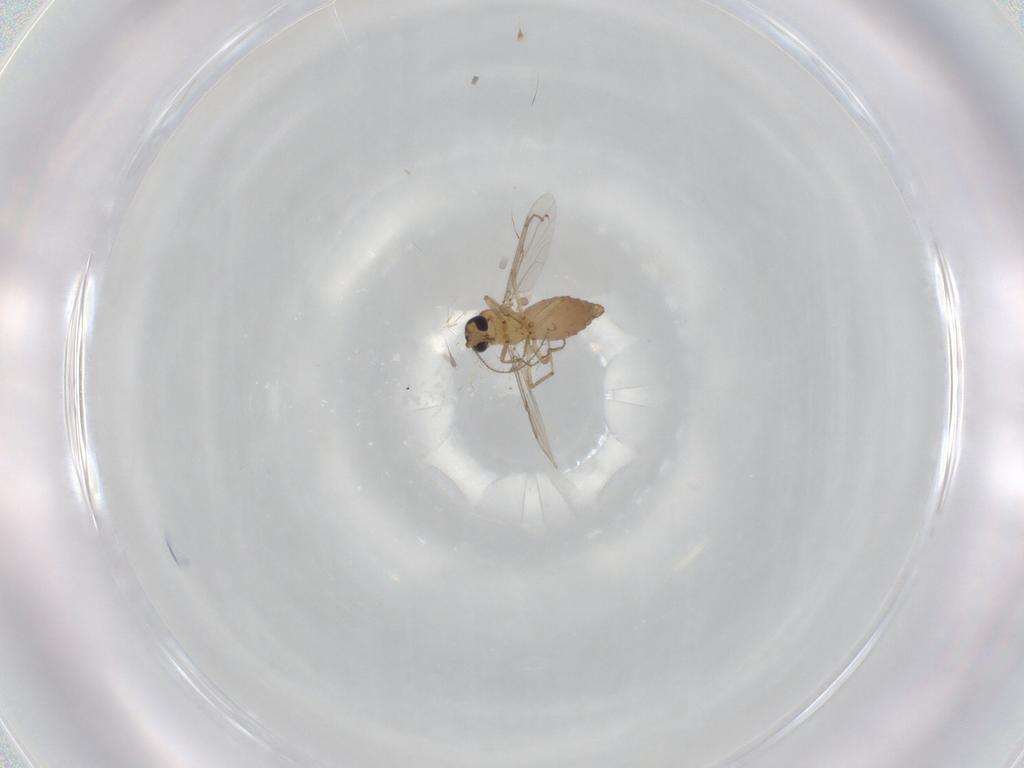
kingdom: Animalia
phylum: Arthropoda
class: Insecta
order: Diptera
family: Ceratopogonidae
